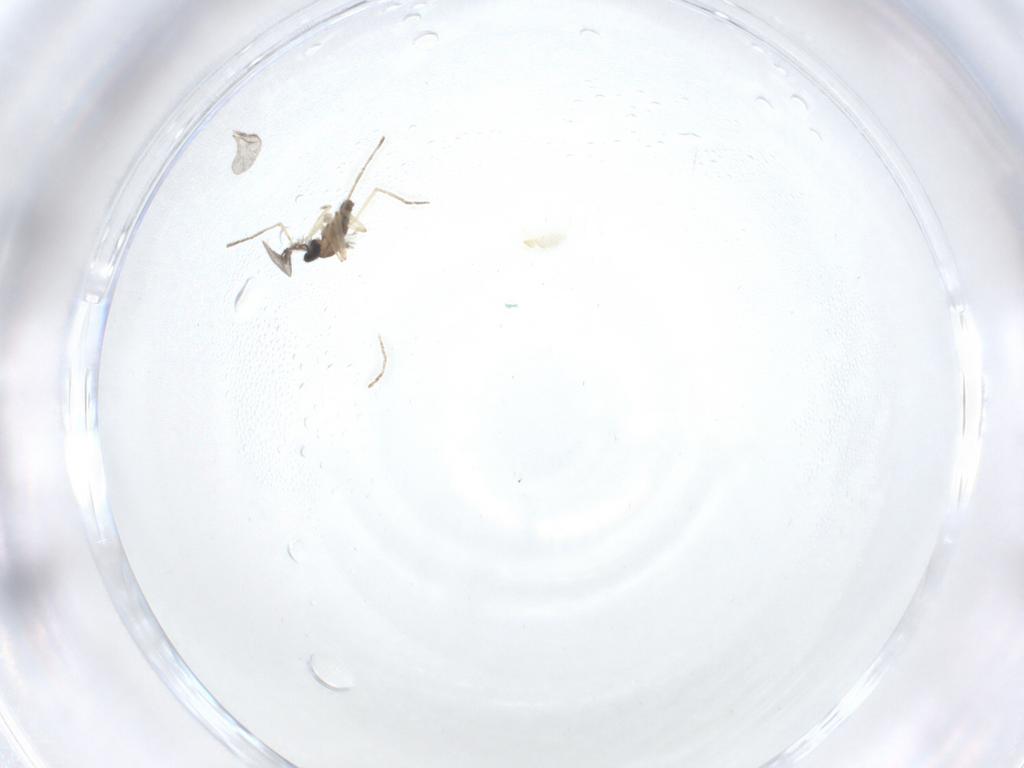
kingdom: Animalia
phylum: Arthropoda
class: Insecta
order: Diptera
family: Cecidomyiidae
